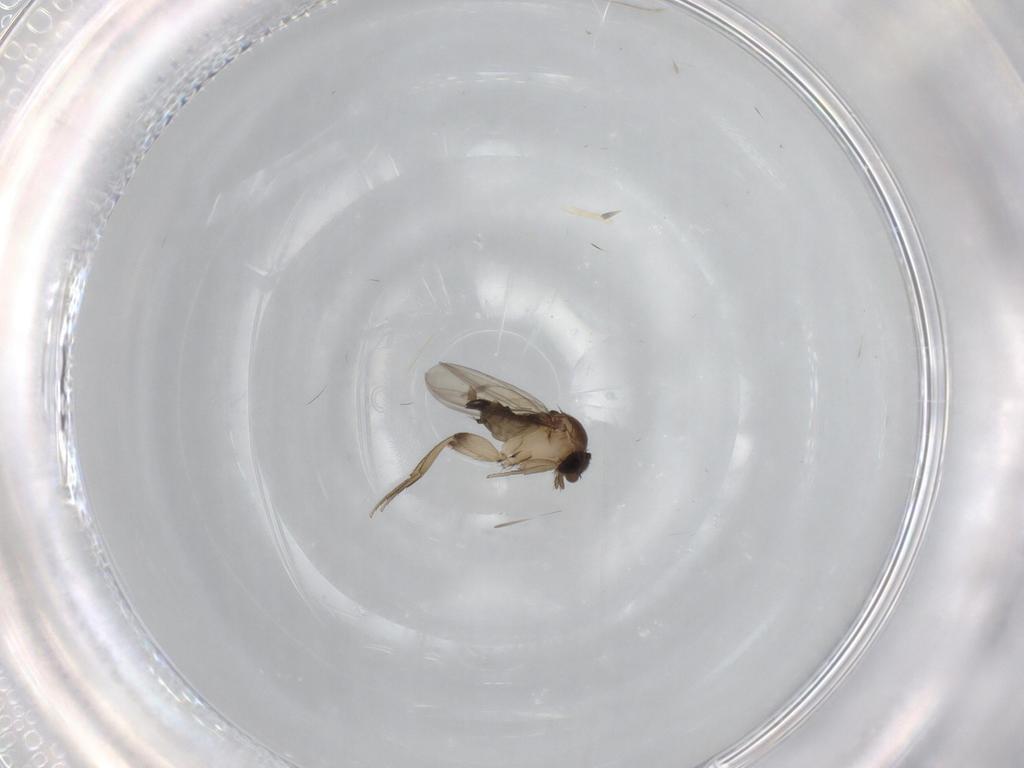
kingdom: Animalia
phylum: Arthropoda
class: Insecta
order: Diptera
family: Phoridae
